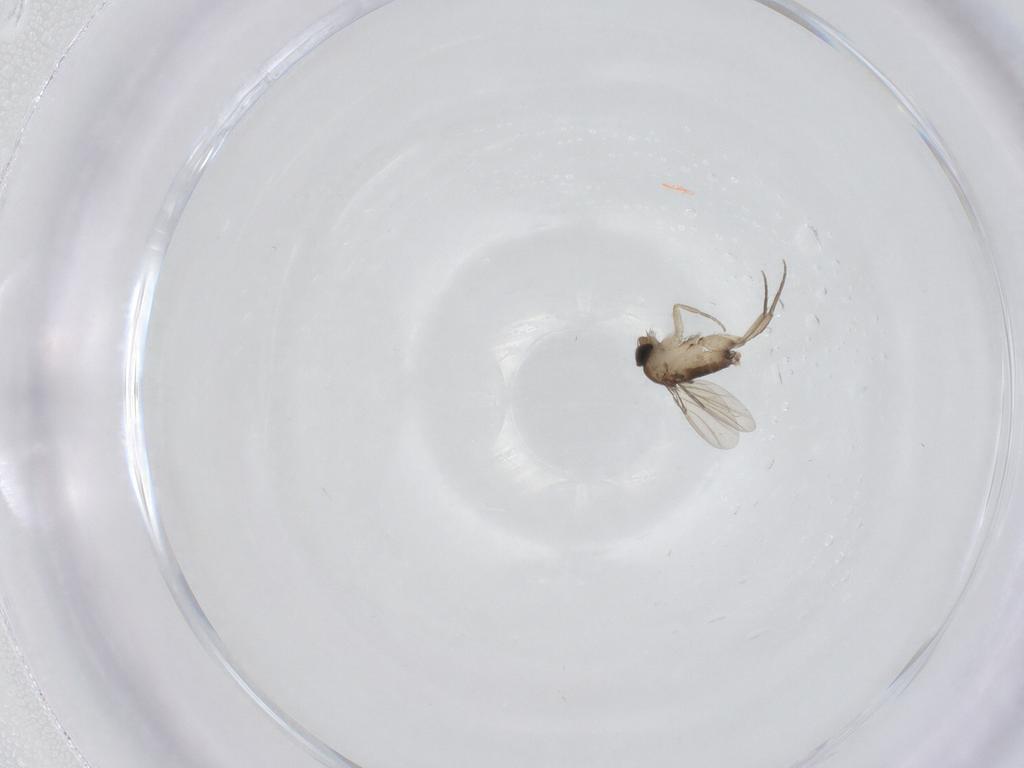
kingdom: Animalia
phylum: Arthropoda
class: Insecta
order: Diptera
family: Phoridae
